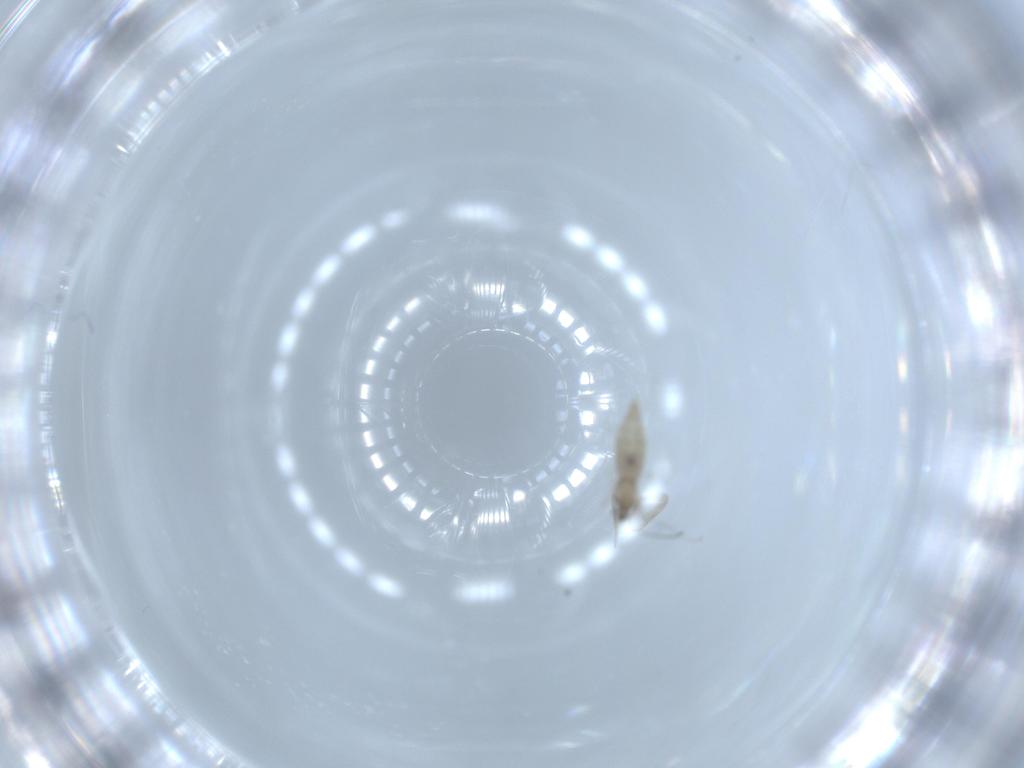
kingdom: Animalia
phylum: Arthropoda
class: Insecta
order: Diptera
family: Cecidomyiidae
